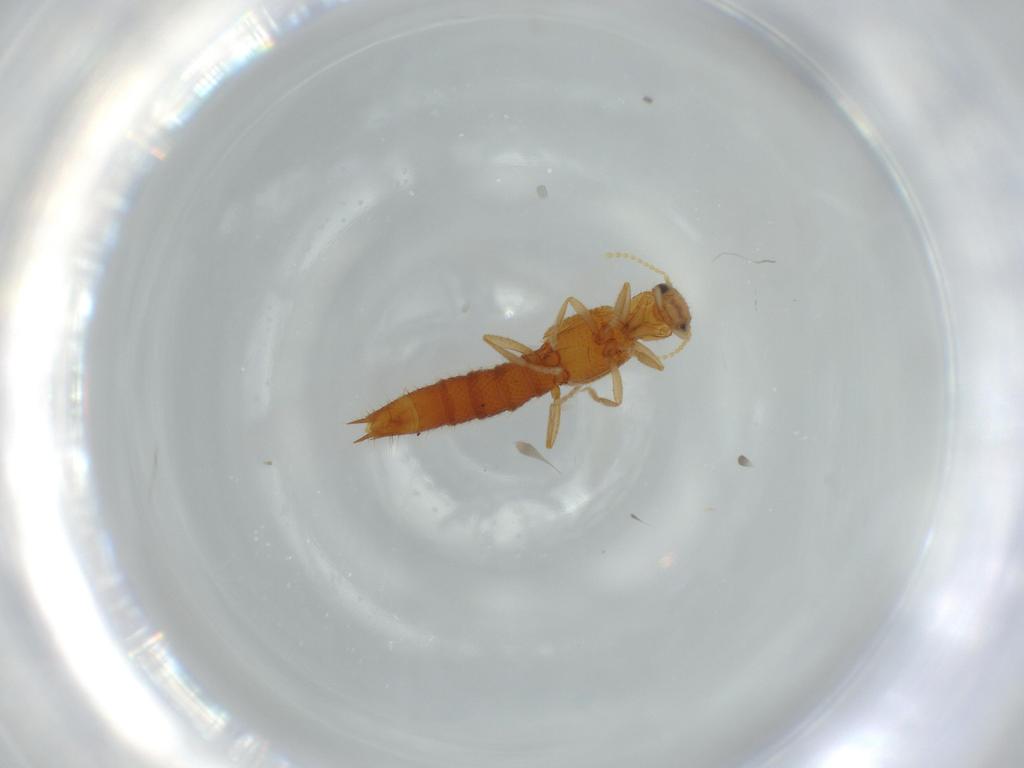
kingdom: Animalia
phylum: Arthropoda
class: Insecta
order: Coleoptera
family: Staphylinidae
